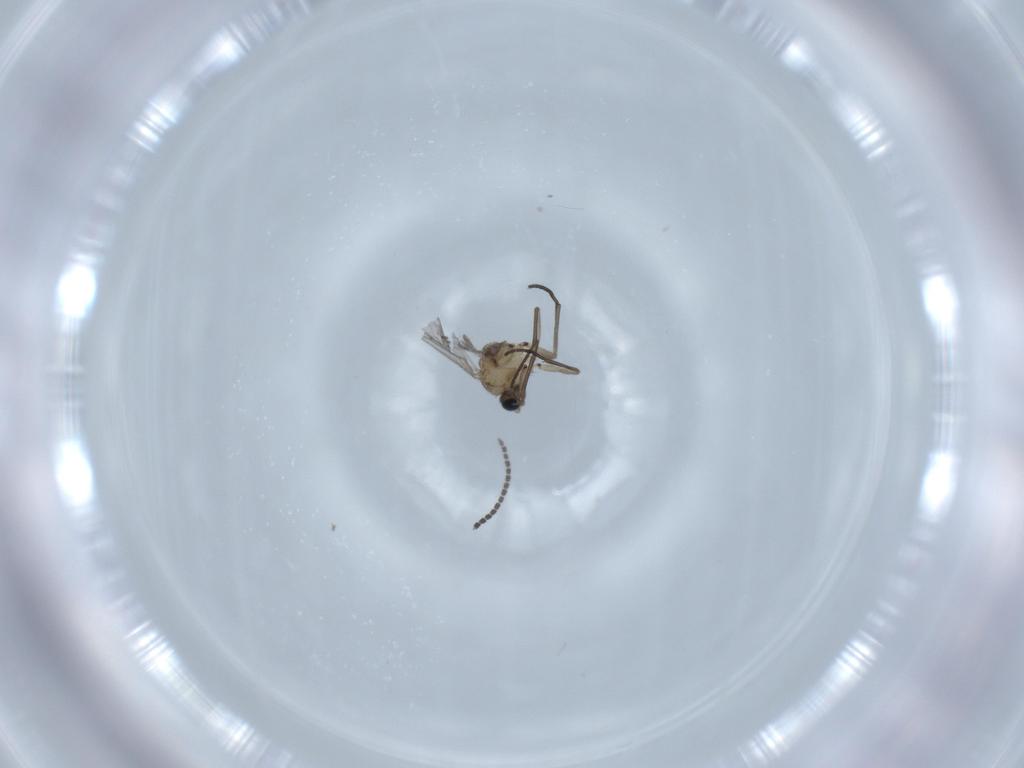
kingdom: Animalia
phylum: Arthropoda
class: Insecta
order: Diptera
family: Sciaridae
